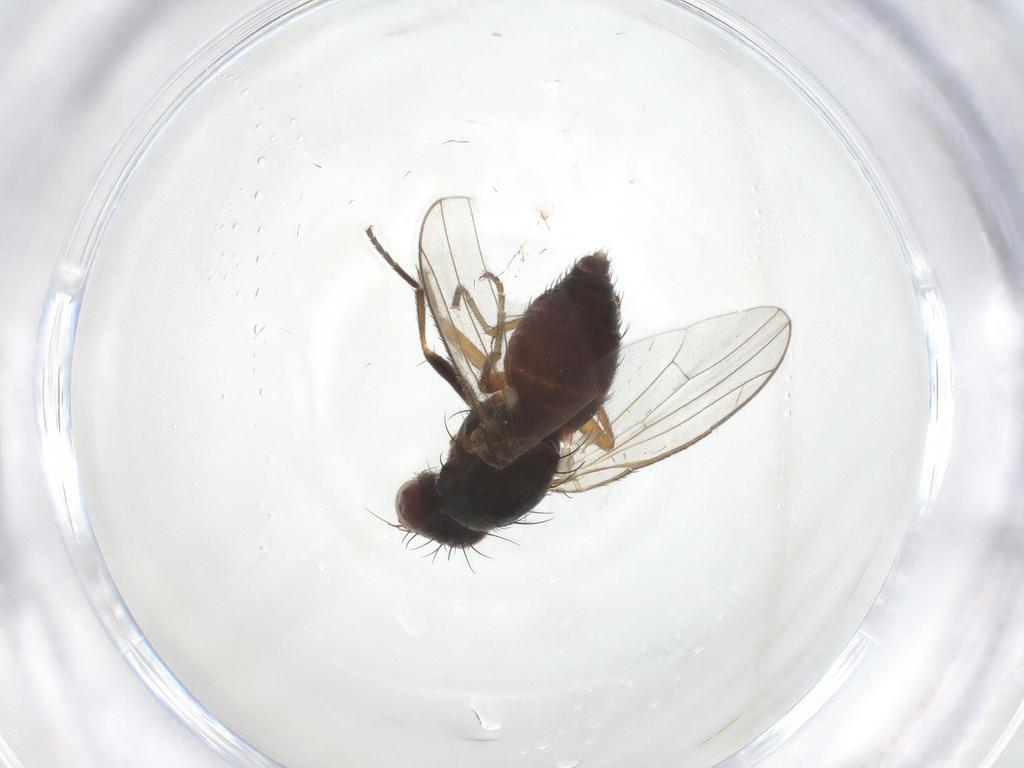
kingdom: Animalia
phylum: Arthropoda
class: Insecta
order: Diptera
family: Heleomyzidae
